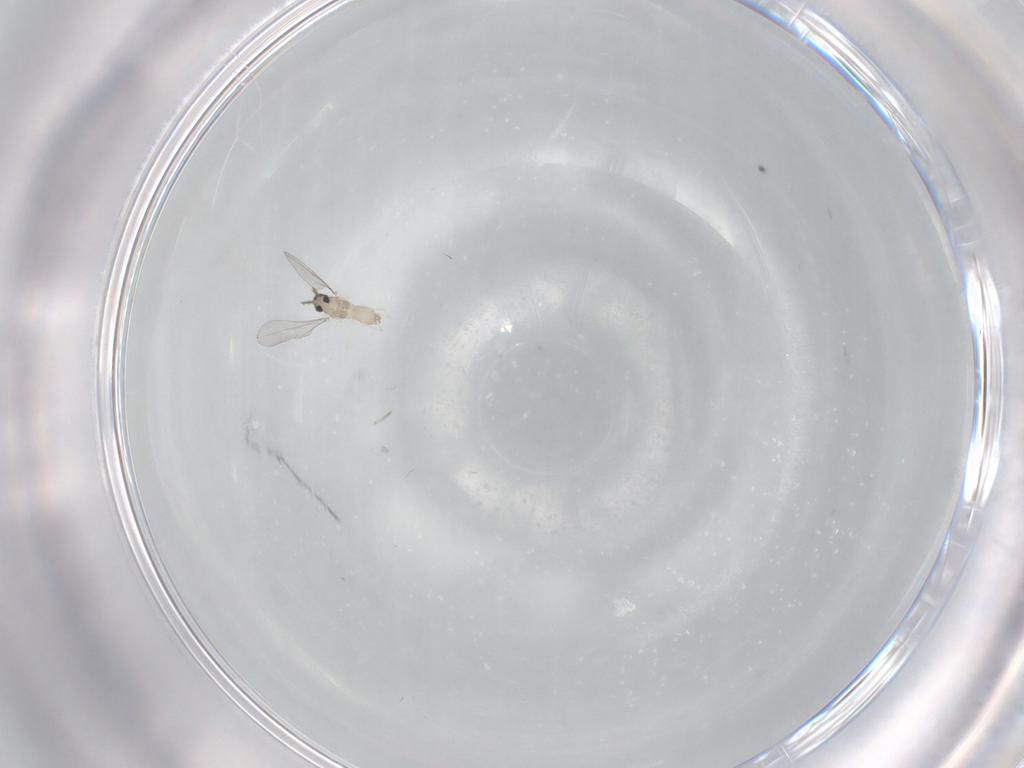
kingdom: Animalia
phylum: Arthropoda
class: Insecta
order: Diptera
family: Cecidomyiidae
